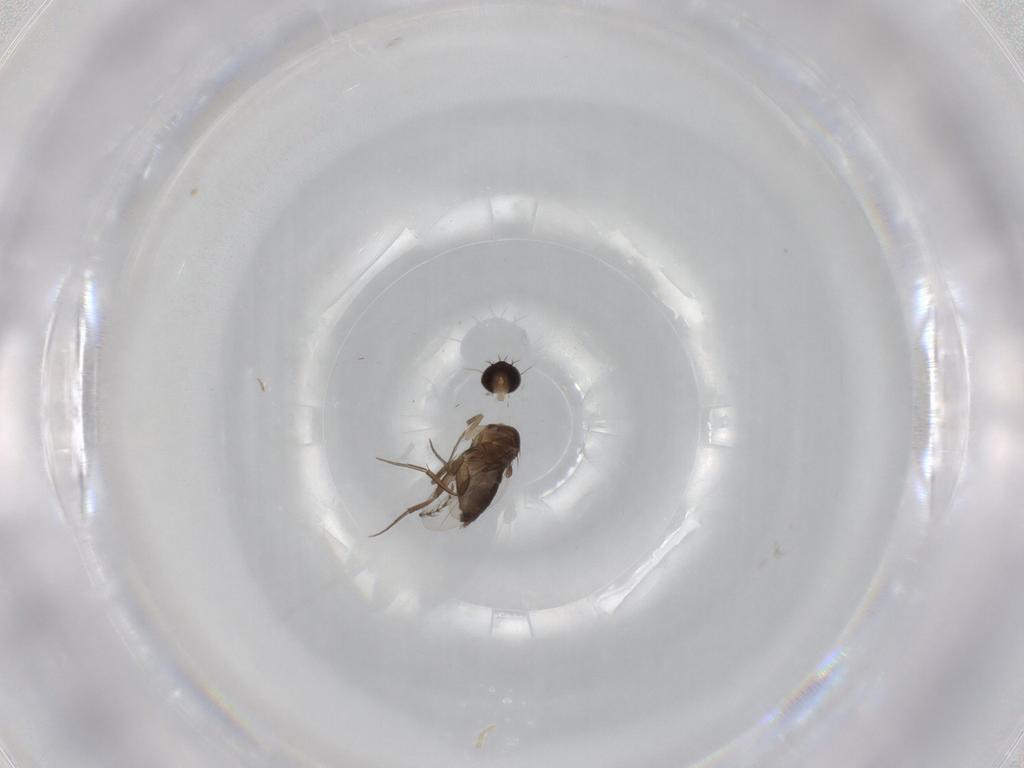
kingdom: Animalia
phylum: Arthropoda
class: Insecta
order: Diptera
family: Phoridae
